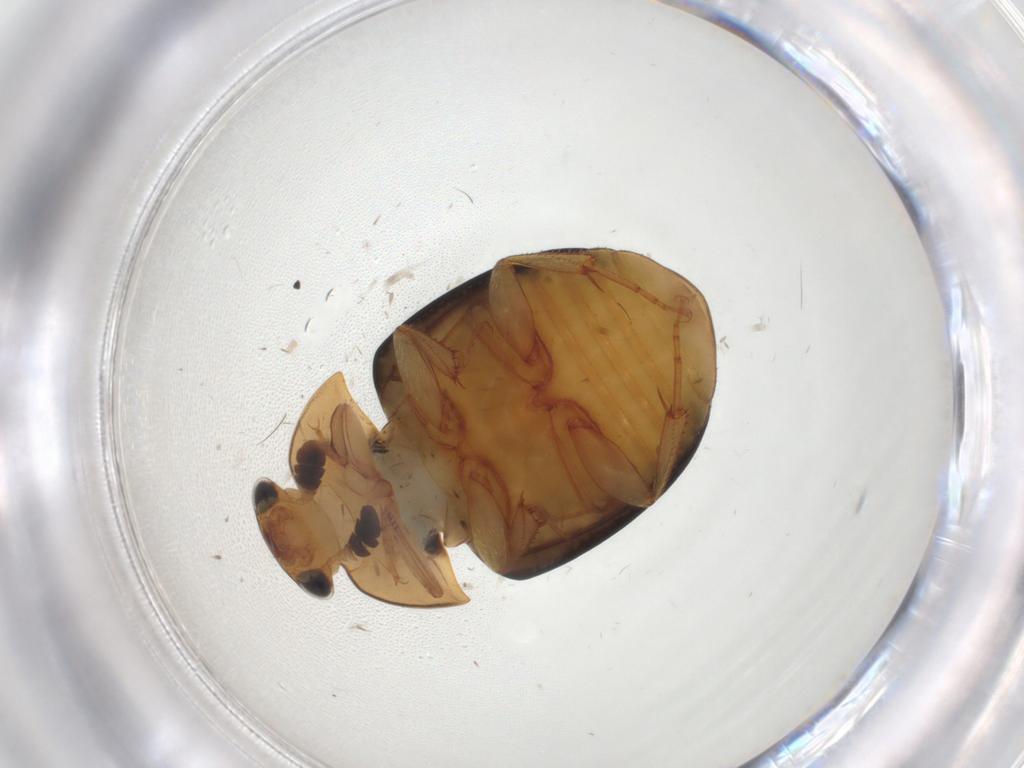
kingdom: Animalia
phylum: Arthropoda
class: Insecta
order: Coleoptera
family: Nitidulidae
